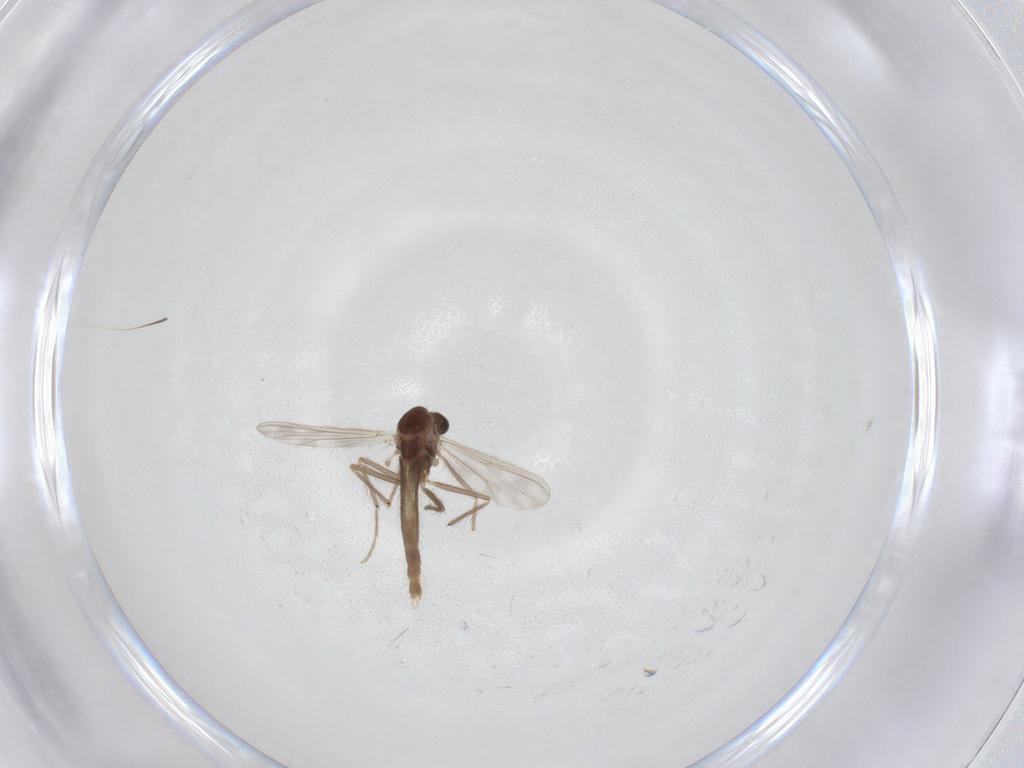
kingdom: Animalia
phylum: Arthropoda
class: Insecta
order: Diptera
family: Chironomidae
